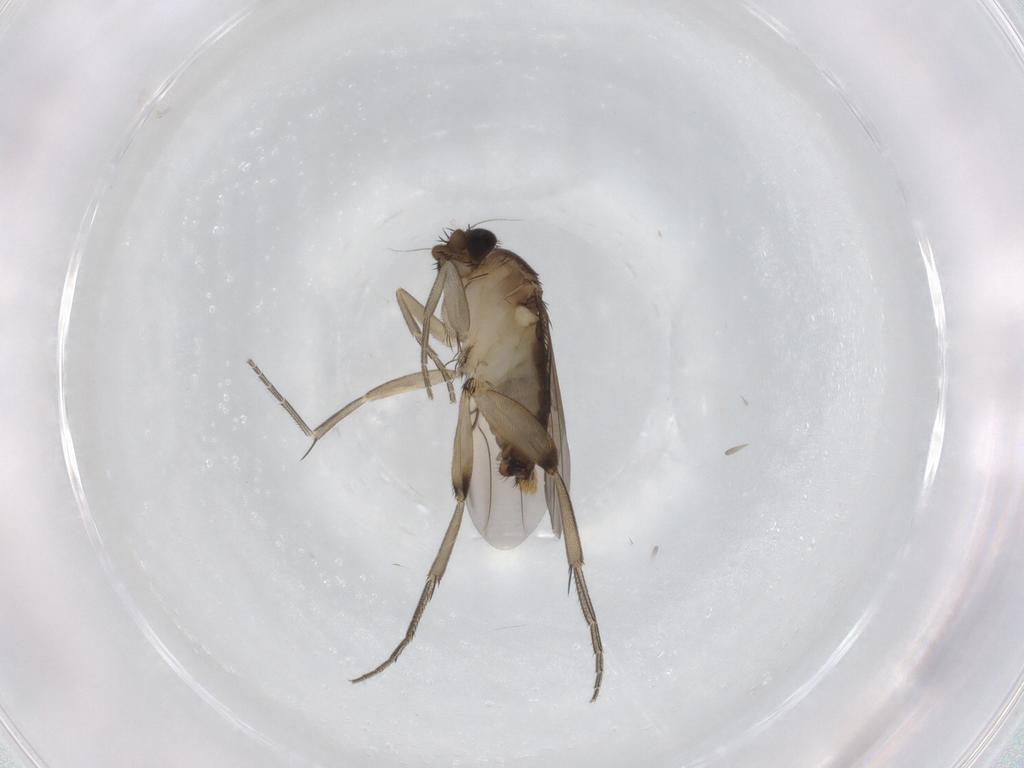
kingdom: Animalia
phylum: Arthropoda
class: Insecta
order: Diptera
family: Phoridae
